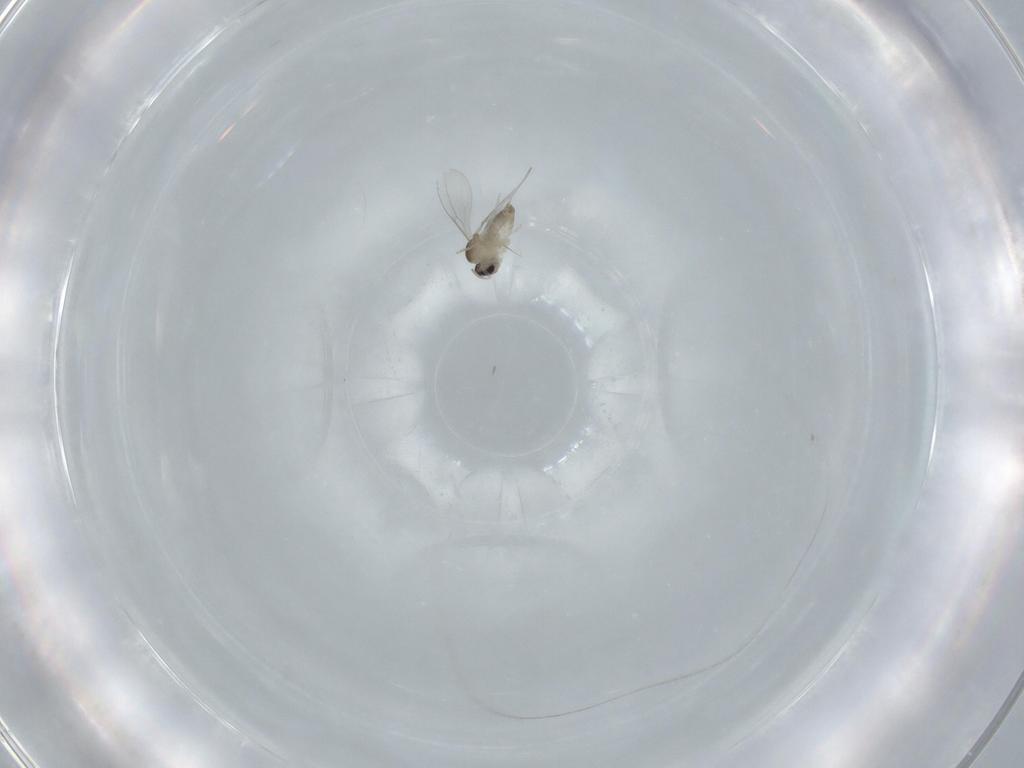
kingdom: Animalia
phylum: Arthropoda
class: Insecta
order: Diptera
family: Cecidomyiidae
